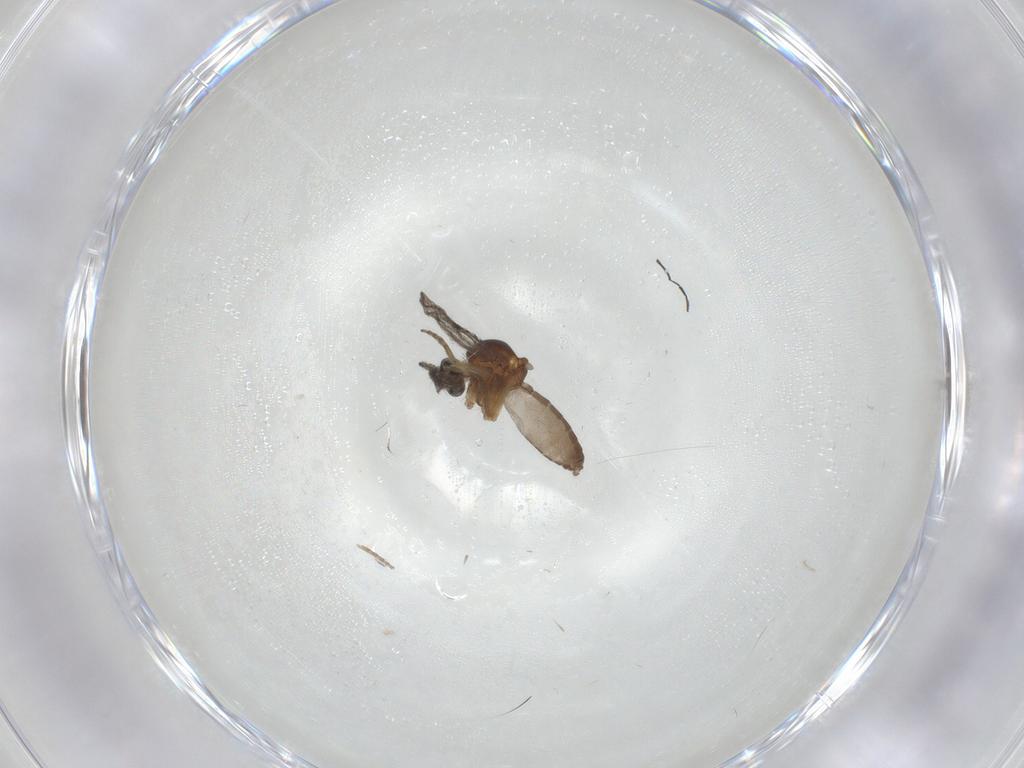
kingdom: Animalia
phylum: Arthropoda
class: Insecta
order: Diptera
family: Ceratopogonidae
